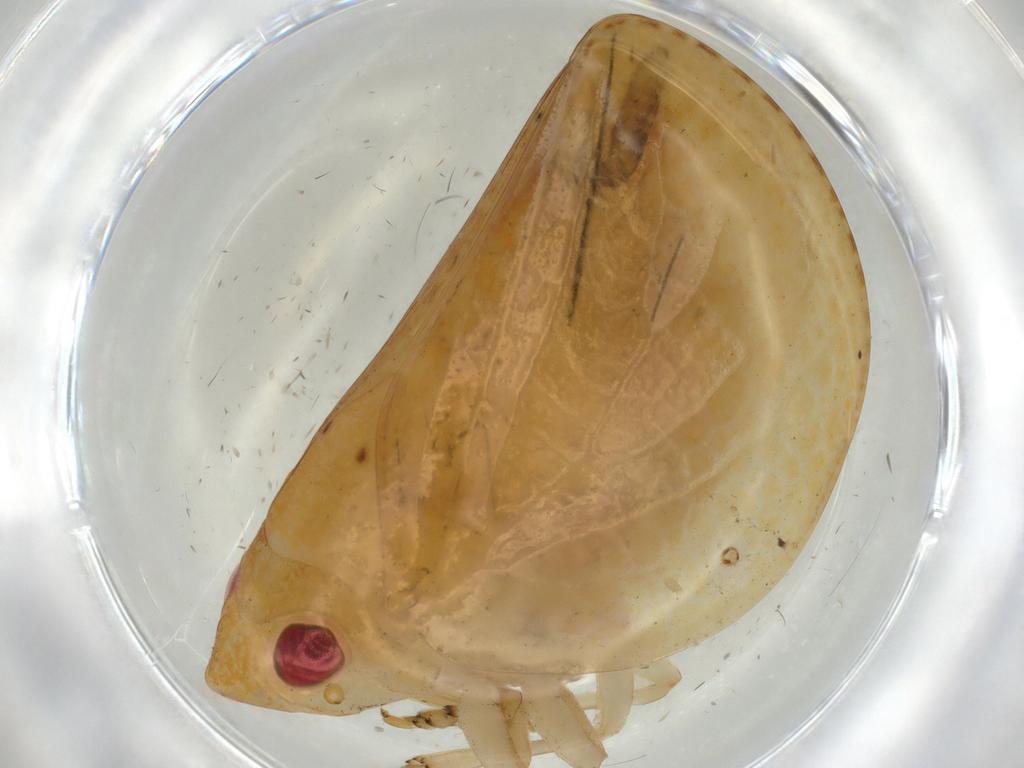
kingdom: Animalia
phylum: Arthropoda
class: Insecta
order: Hemiptera
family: Acanaloniidae
